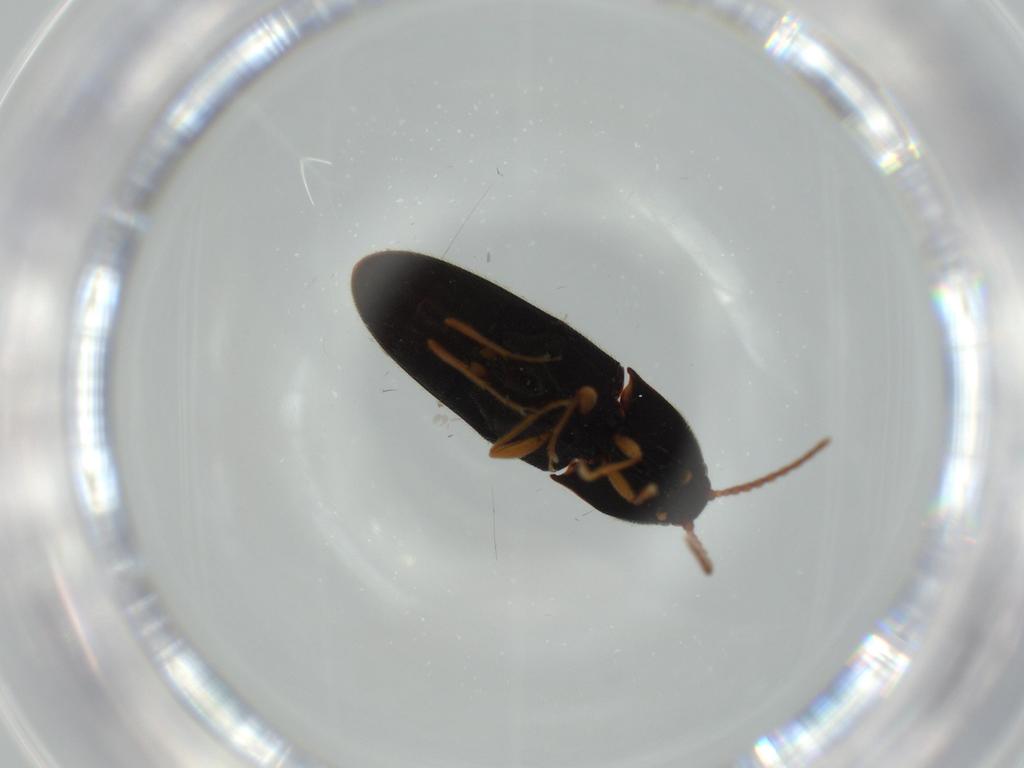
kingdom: Animalia
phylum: Arthropoda
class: Insecta
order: Coleoptera
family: Elateridae
